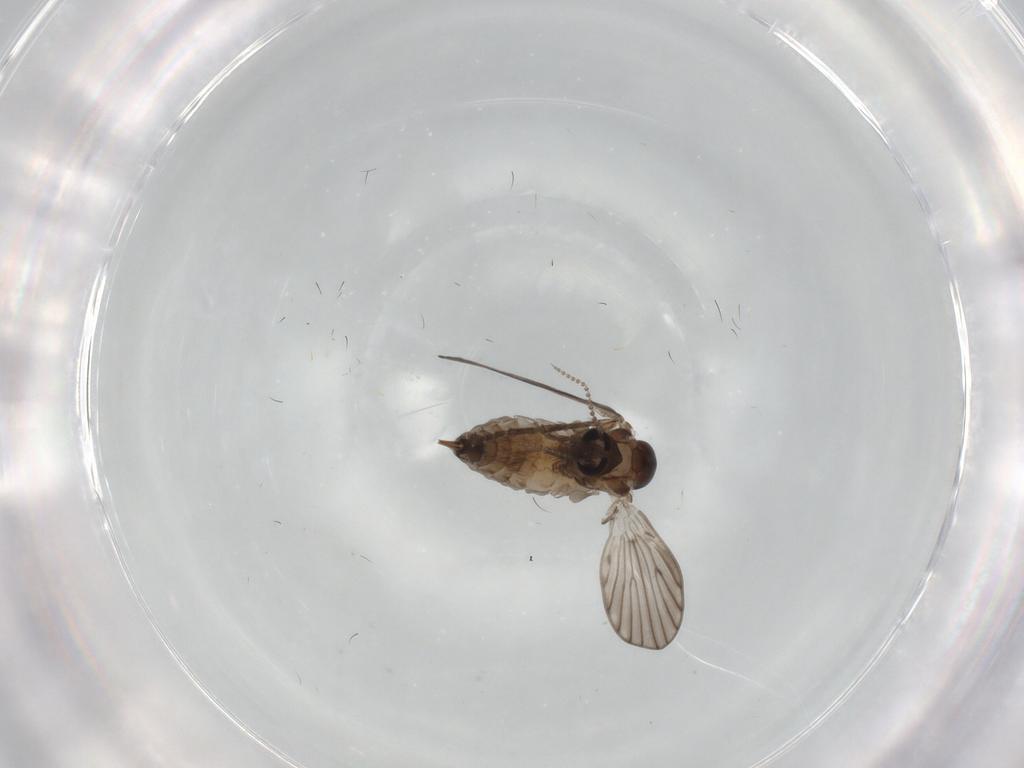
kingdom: Animalia
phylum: Arthropoda
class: Insecta
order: Diptera
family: Psychodidae
